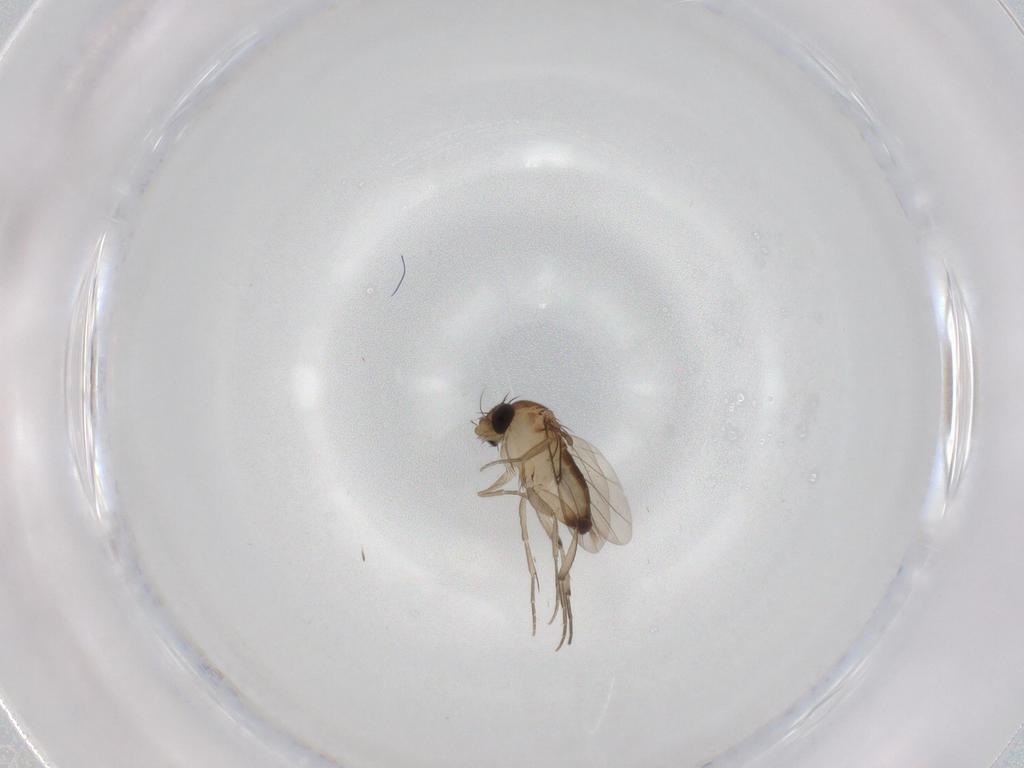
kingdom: Animalia
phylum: Arthropoda
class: Insecta
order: Diptera
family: Phoridae
